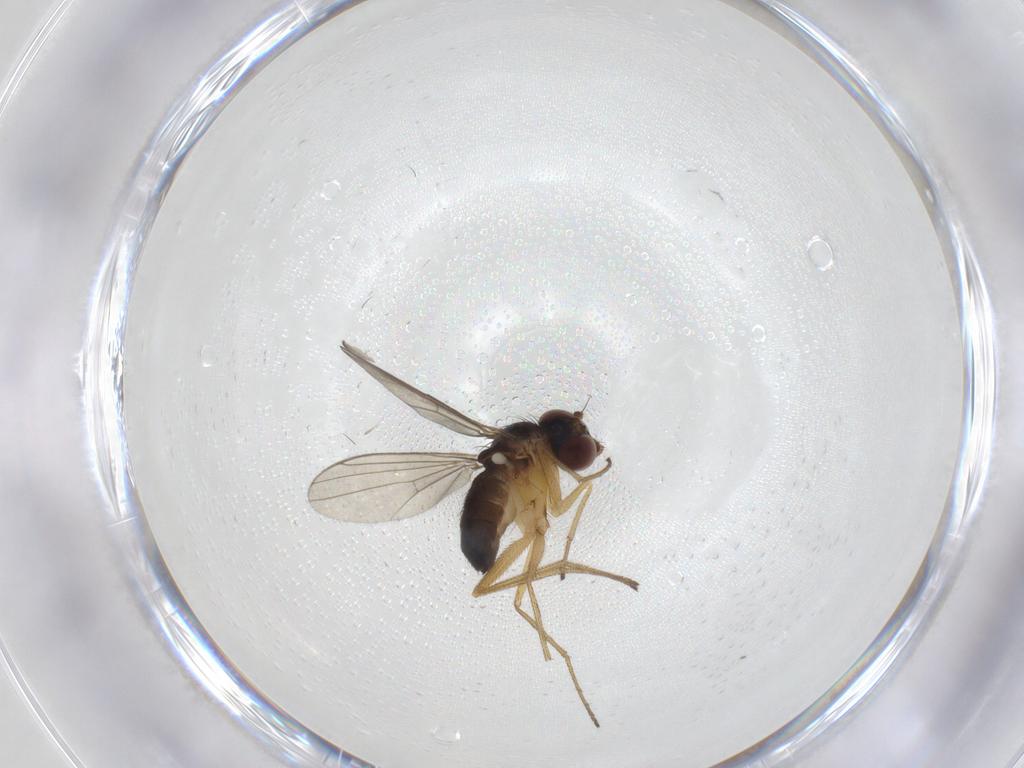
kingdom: Animalia
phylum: Arthropoda
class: Insecta
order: Diptera
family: Dolichopodidae
